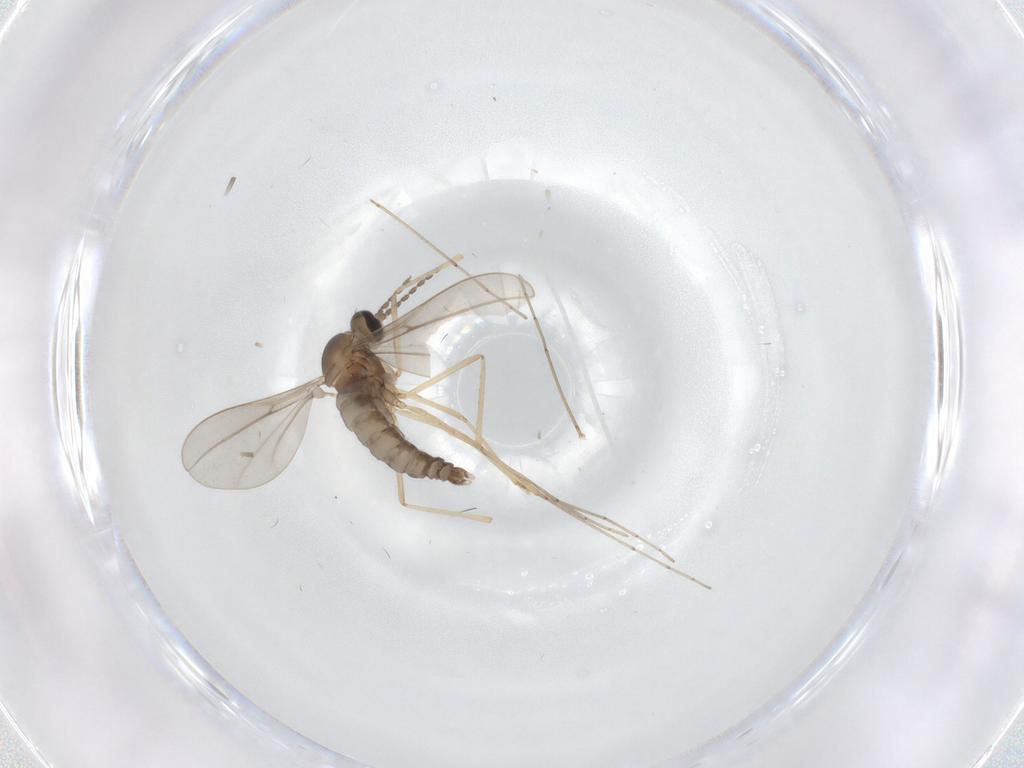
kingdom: Animalia
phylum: Arthropoda
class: Insecta
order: Diptera
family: Cecidomyiidae
